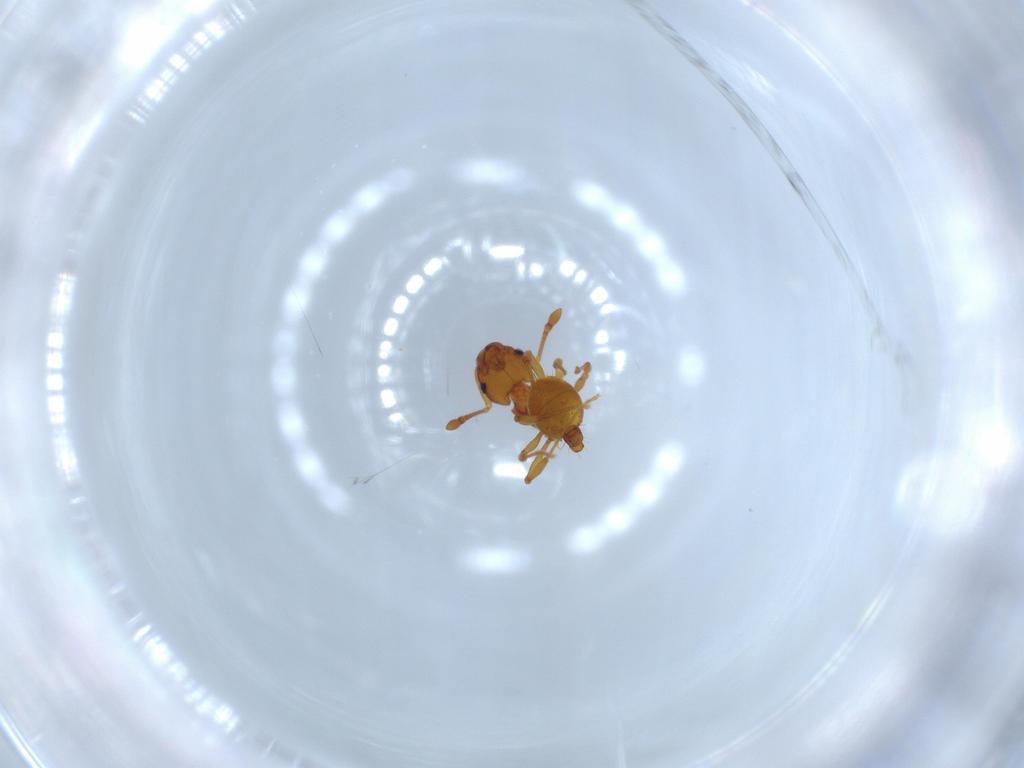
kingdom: Animalia
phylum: Arthropoda
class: Insecta
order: Hymenoptera
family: Formicidae
